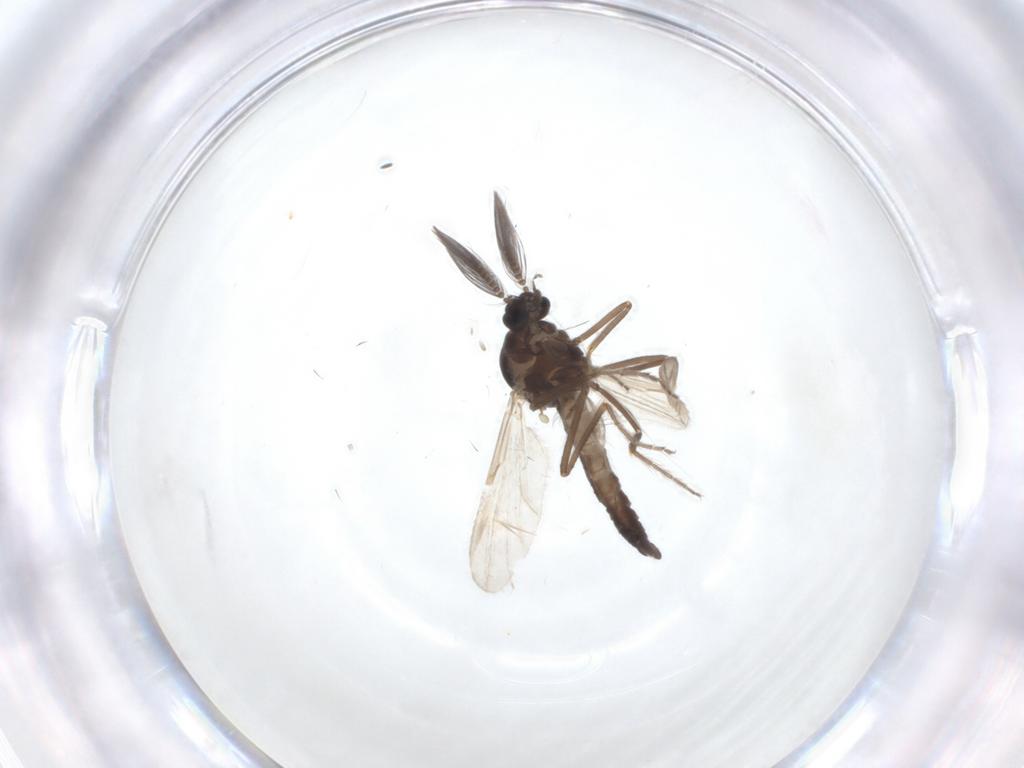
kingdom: Animalia
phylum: Arthropoda
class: Insecta
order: Diptera
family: Ceratopogonidae
